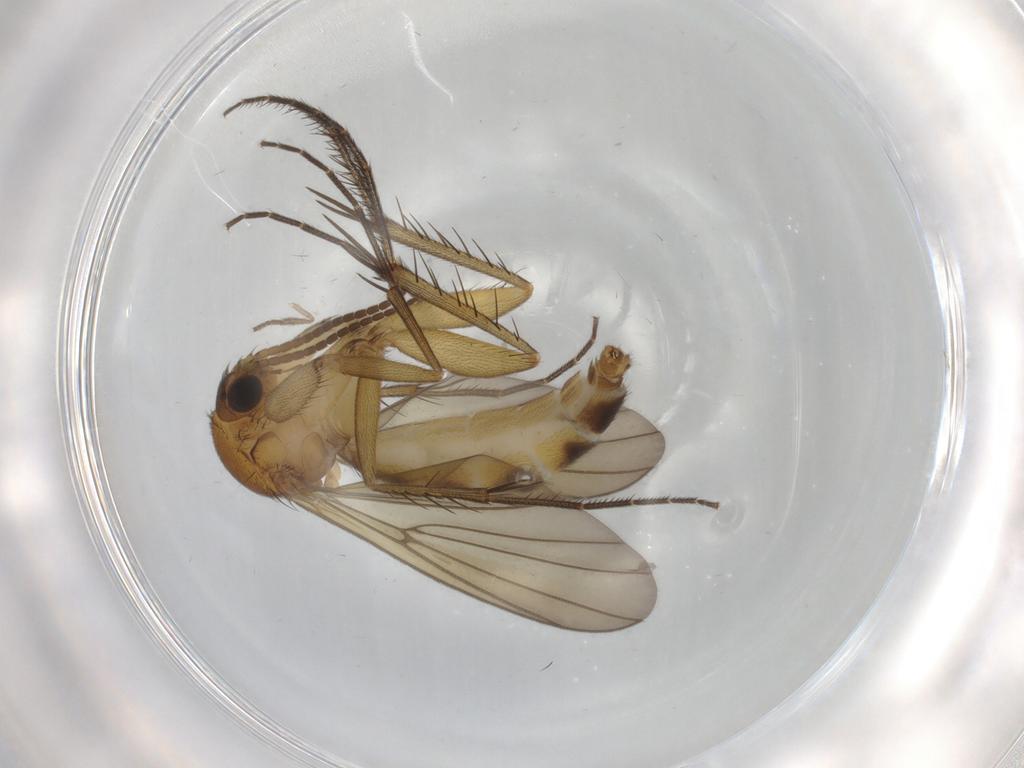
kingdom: Animalia
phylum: Arthropoda
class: Insecta
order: Diptera
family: Mycetophilidae
